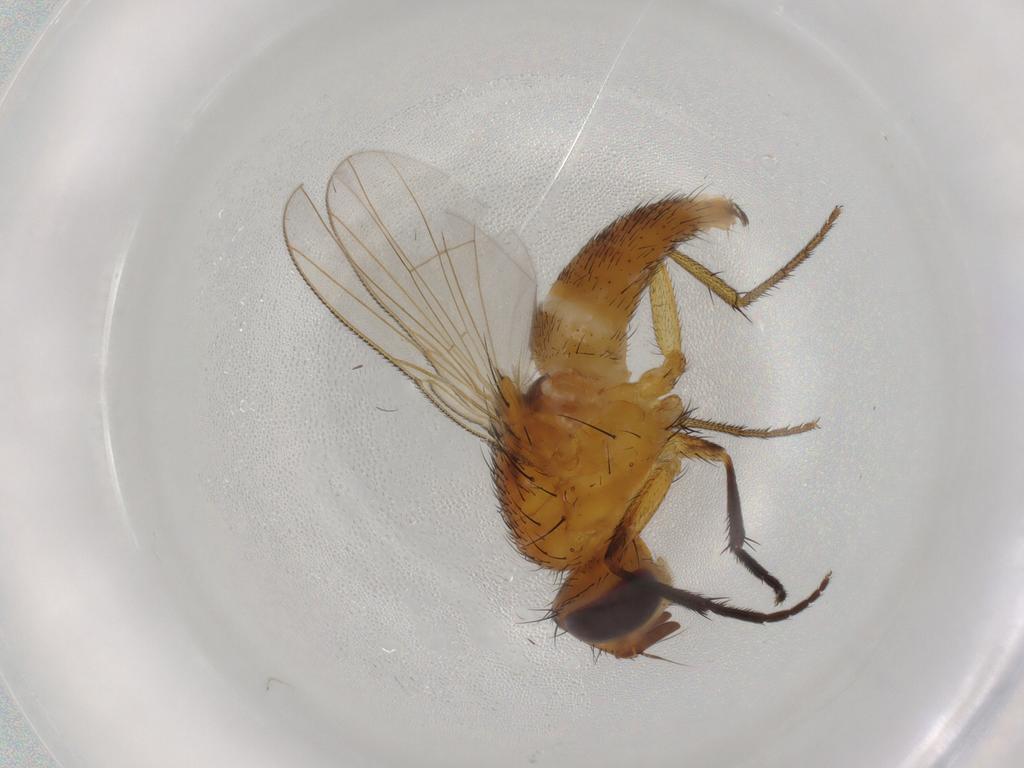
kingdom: Animalia
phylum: Arthropoda
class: Insecta
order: Diptera
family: Muscidae
